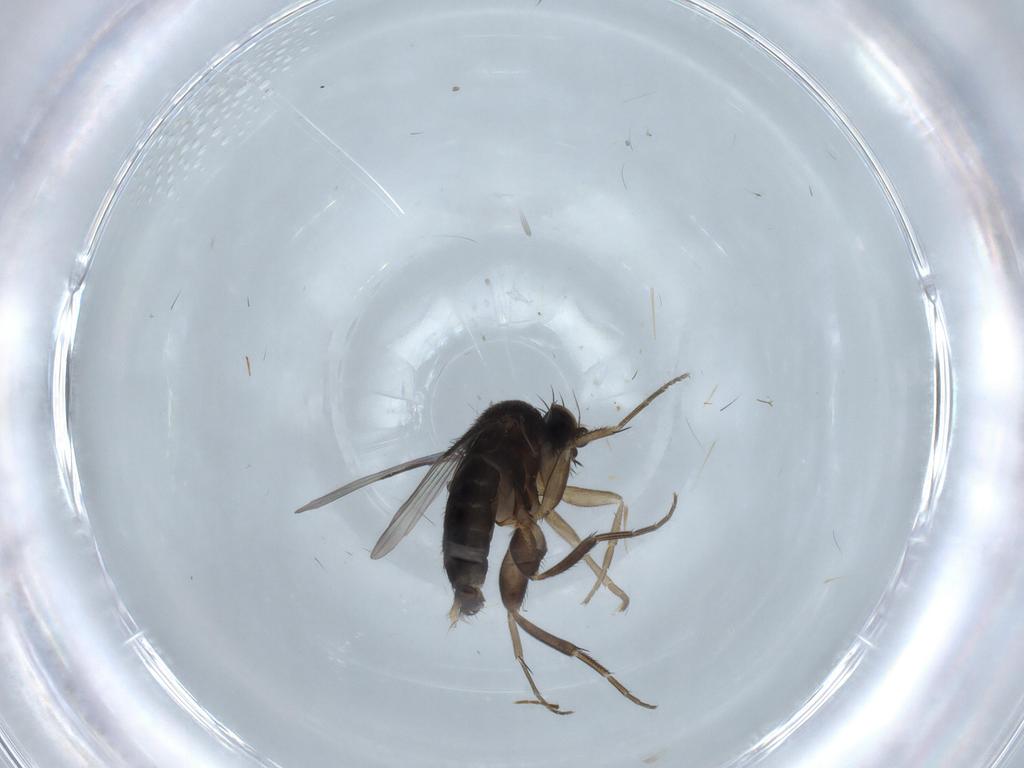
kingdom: Animalia
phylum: Arthropoda
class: Insecta
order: Diptera
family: Phoridae
